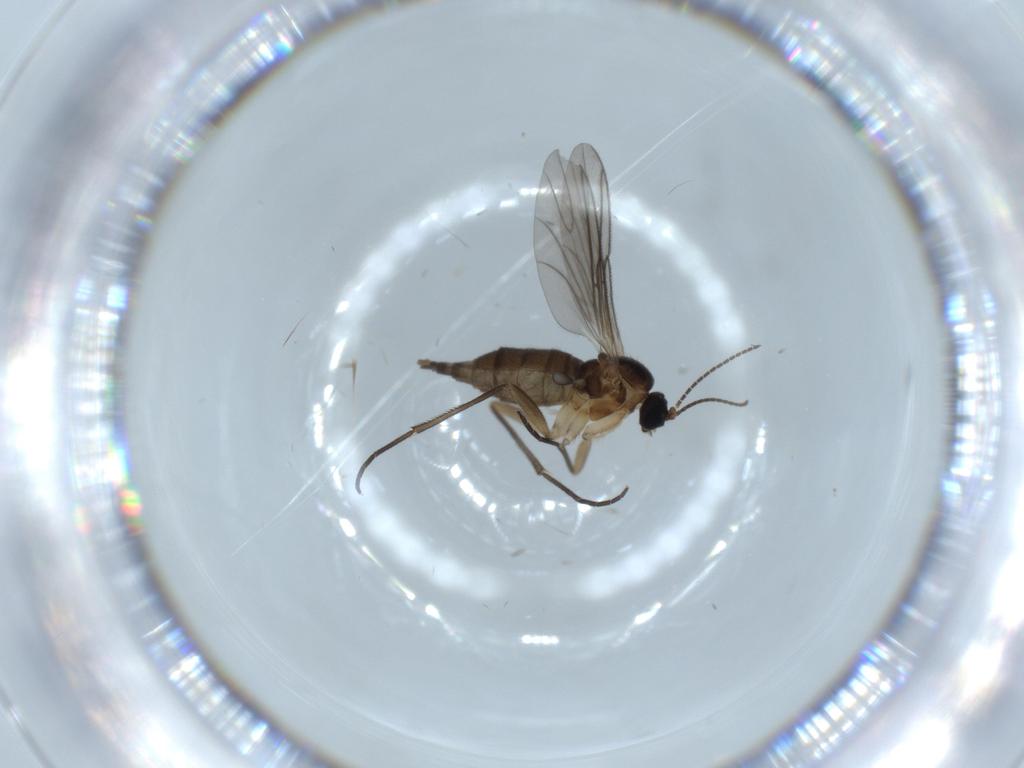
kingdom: Animalia
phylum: Arthropoda
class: Insecta
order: Diptera
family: Sciaridae
